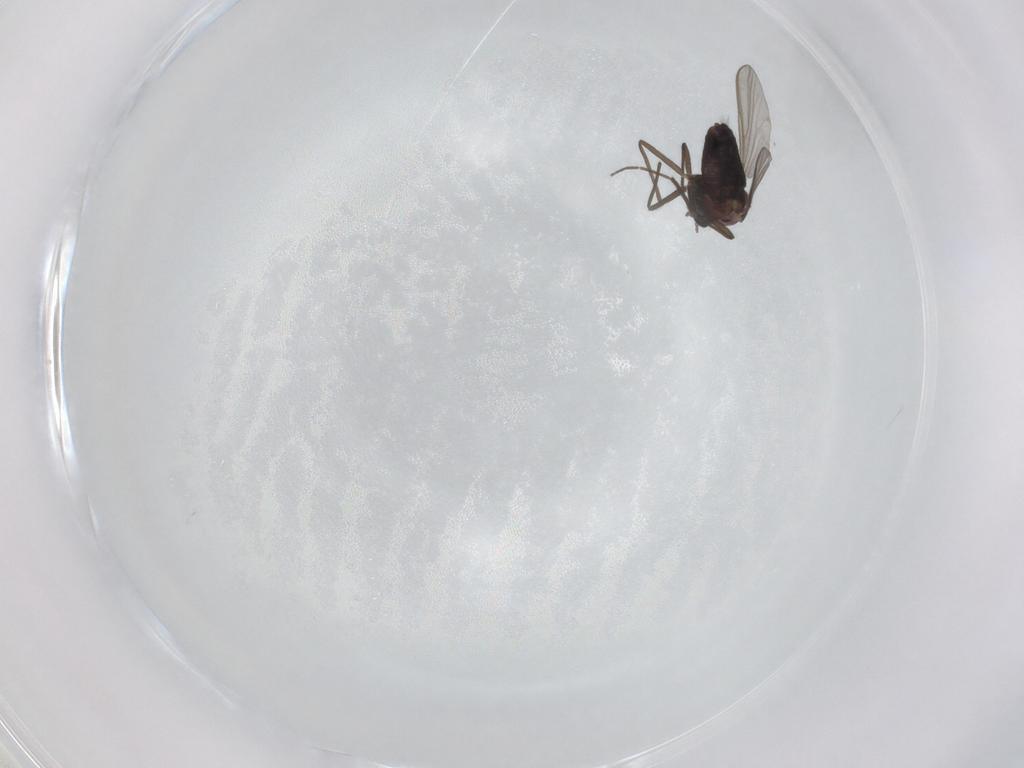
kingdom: Animalia
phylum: Arthropoda
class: Insecta
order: Diptera
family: Chironomidae
